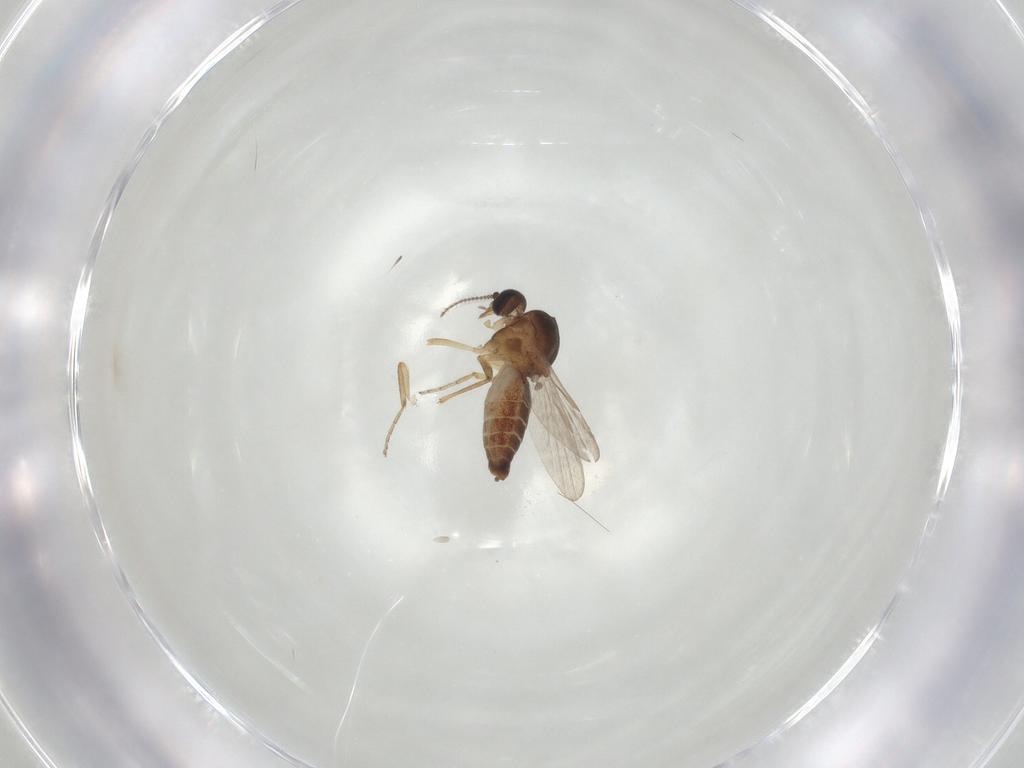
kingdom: Animalia
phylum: Arthropoda
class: Insecta
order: Diptera
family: Ceratopogonidae
